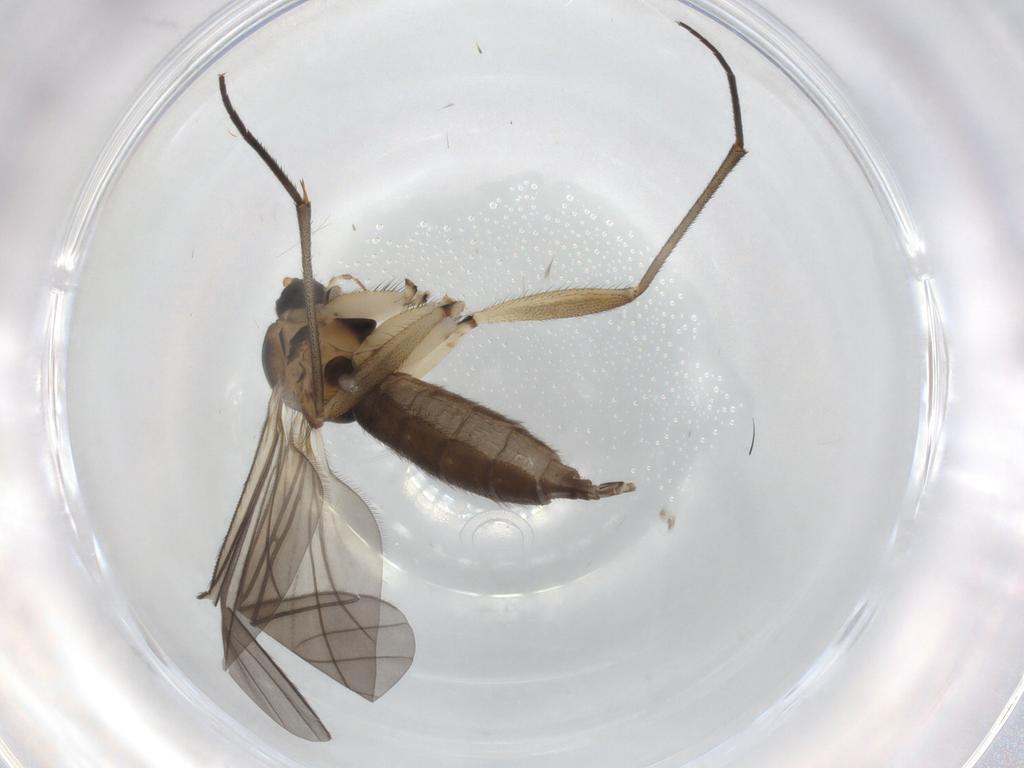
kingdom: Animalia
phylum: Arthropoda
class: Insecta
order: Diptera
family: Sciaridae
